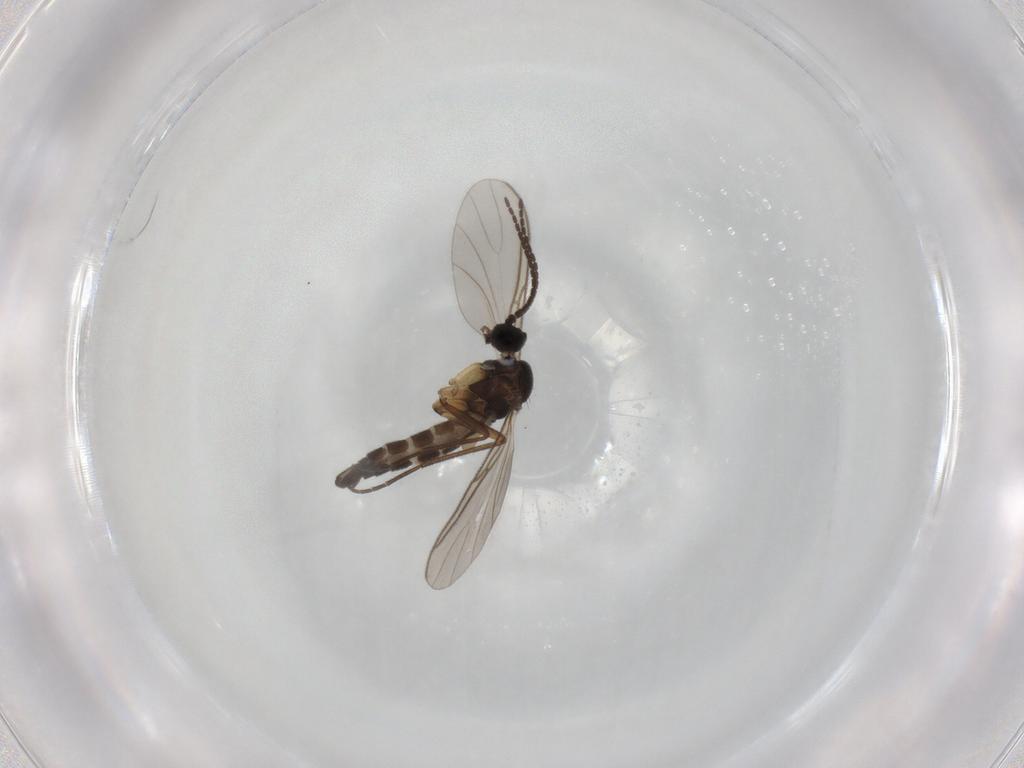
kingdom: Animalia
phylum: Arthropoda
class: Insecta
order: Diptera
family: Sciaridae
